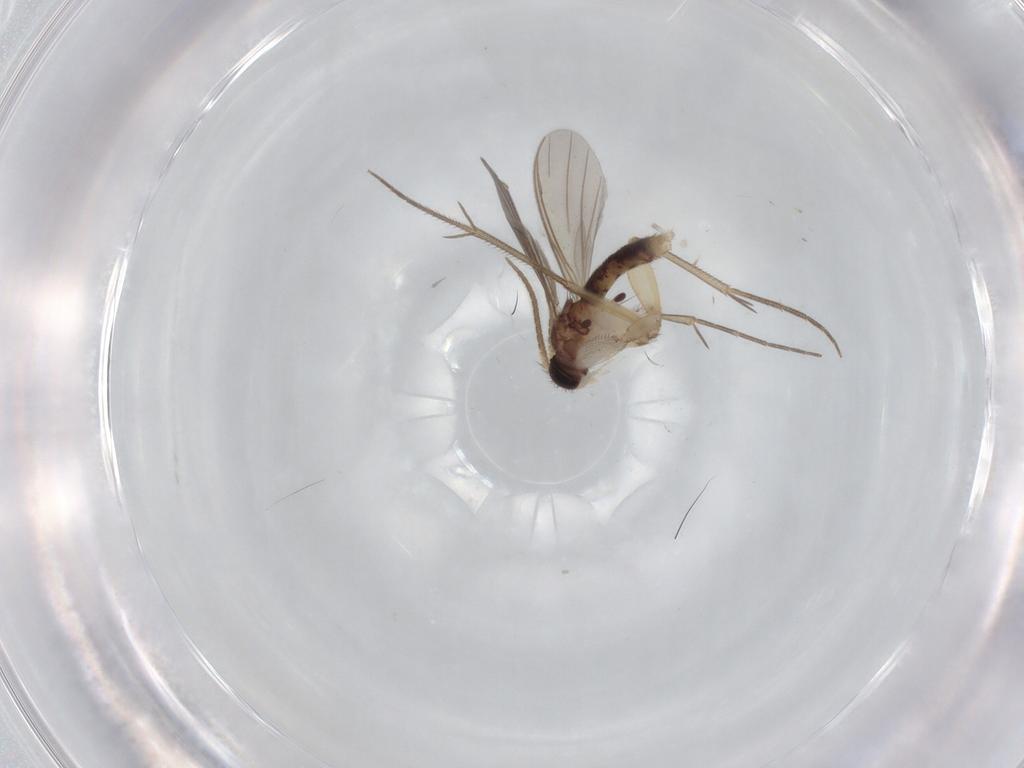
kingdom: Animalia
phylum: Arthropoda
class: Insecta
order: Diptera
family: Mycetophilidae
